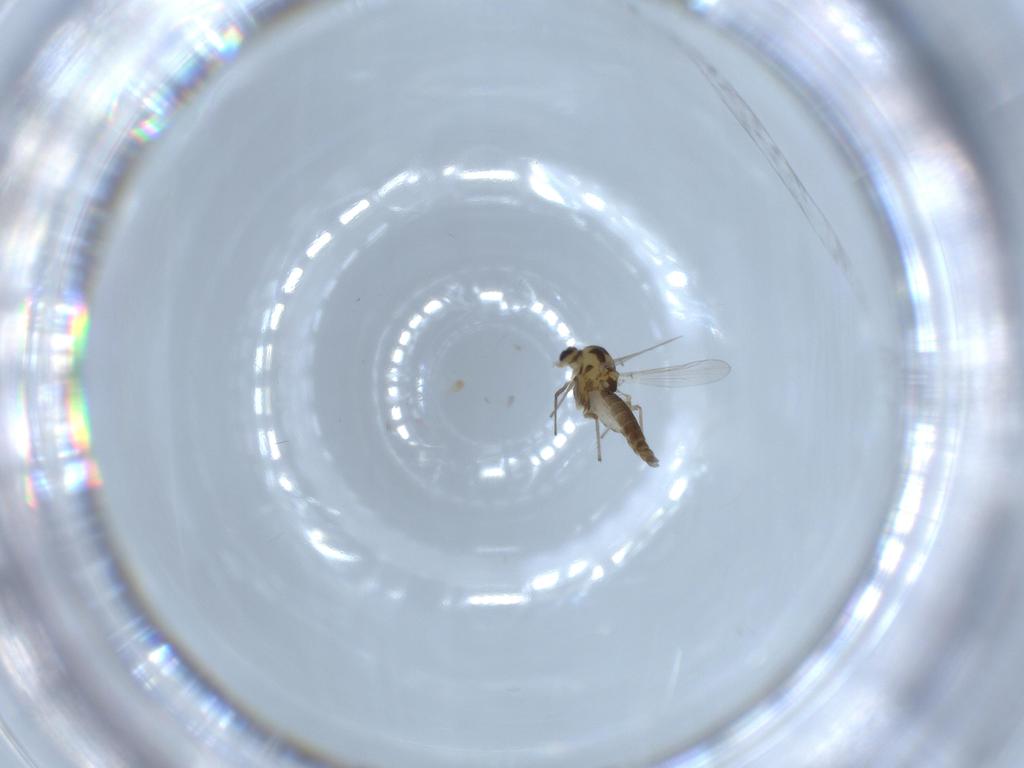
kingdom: Animalia
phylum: Arthropoda
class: Insecta
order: Diptera
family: Chironomidae
